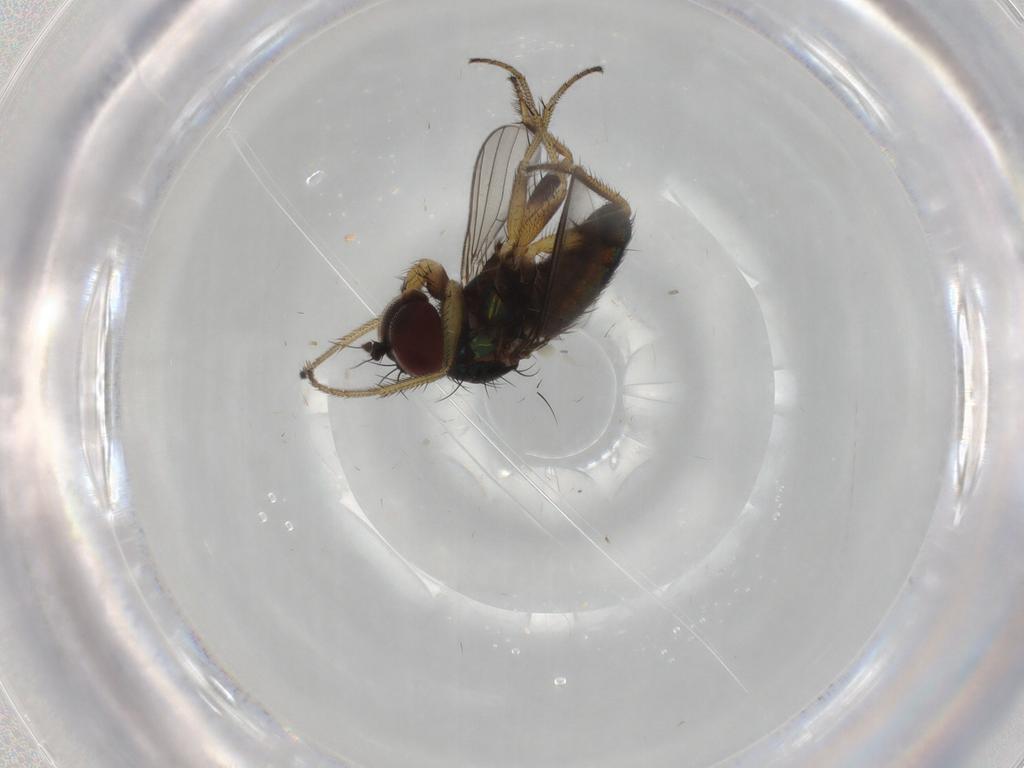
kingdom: Animalia
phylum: Arthropoda
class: Insecta
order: Diptera
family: Dolichopodidae
